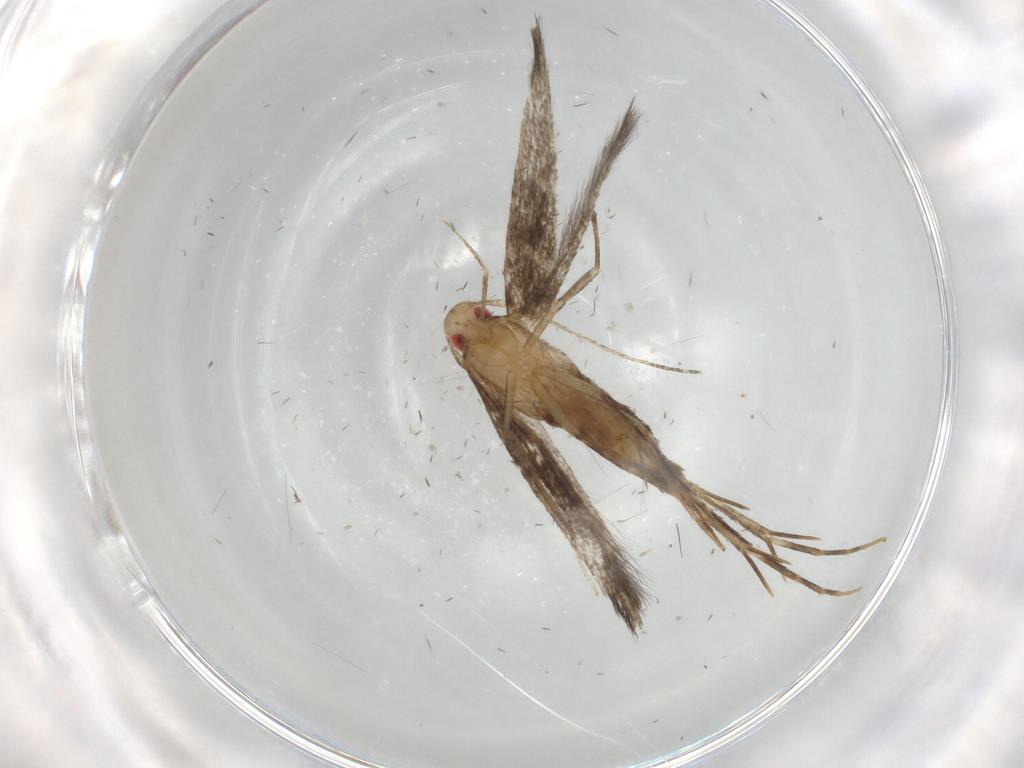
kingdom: Animalia
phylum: Arthropoda
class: Insecta
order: Lepidoptera
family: Cosmopterigidae
